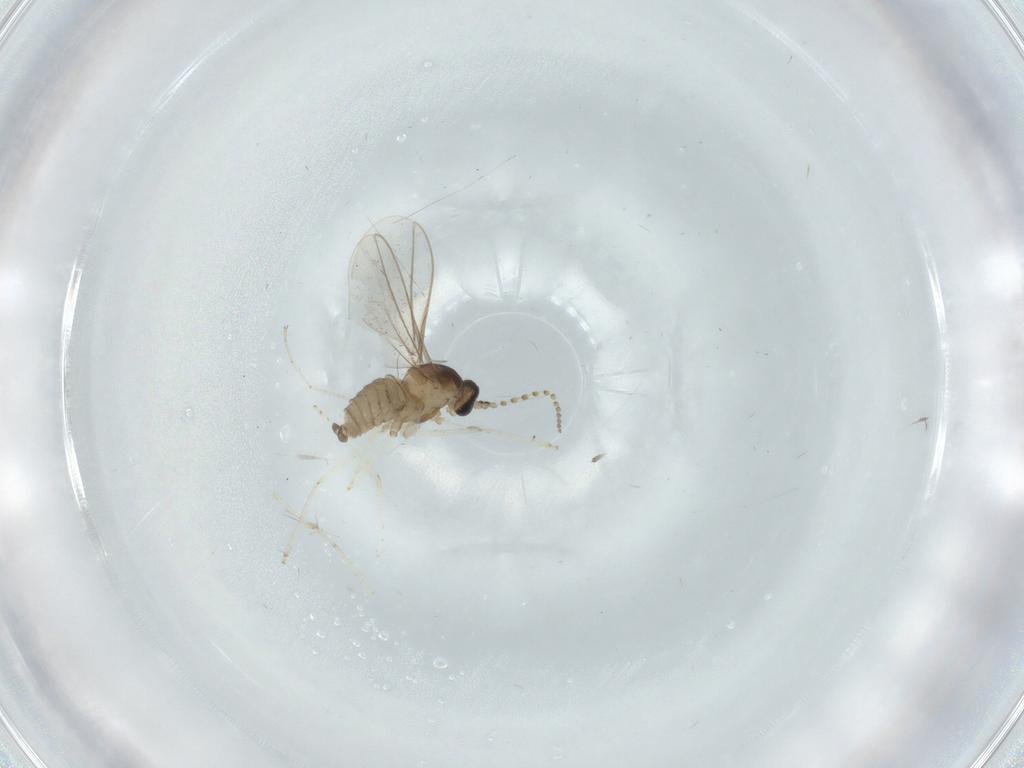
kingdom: Animalia
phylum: Arthropoda
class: Insecta
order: Diptera
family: Cecidomyiidae
